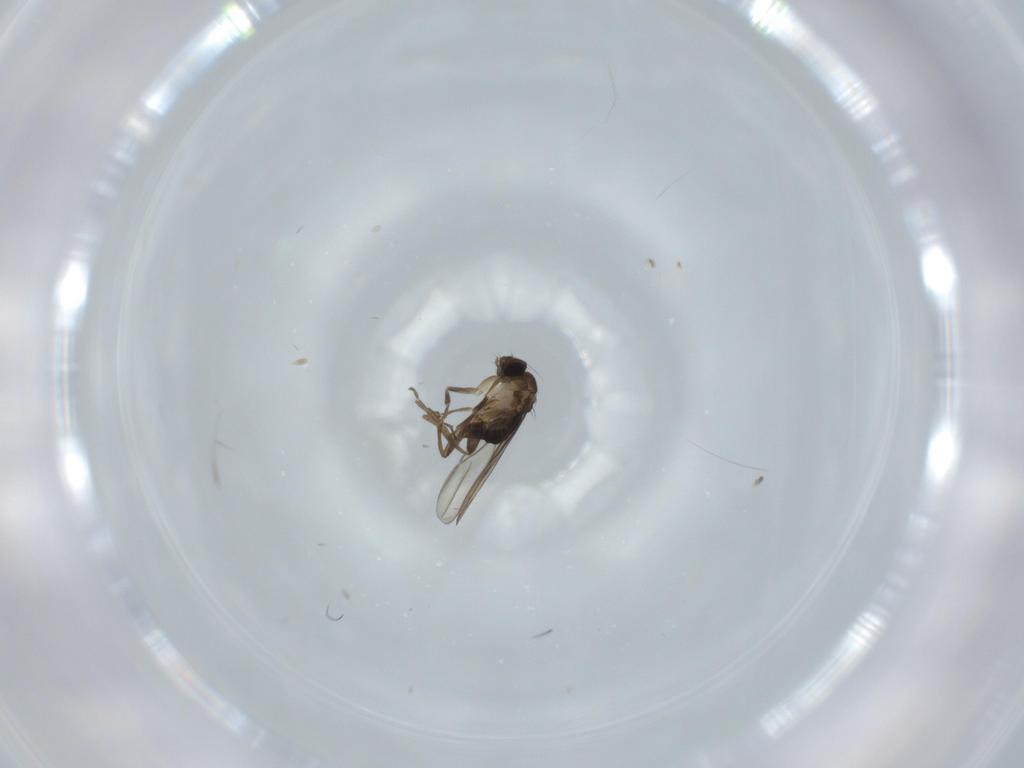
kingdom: Animalia
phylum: Arthropoda
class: Insecta
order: Diptera
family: Phoridae
